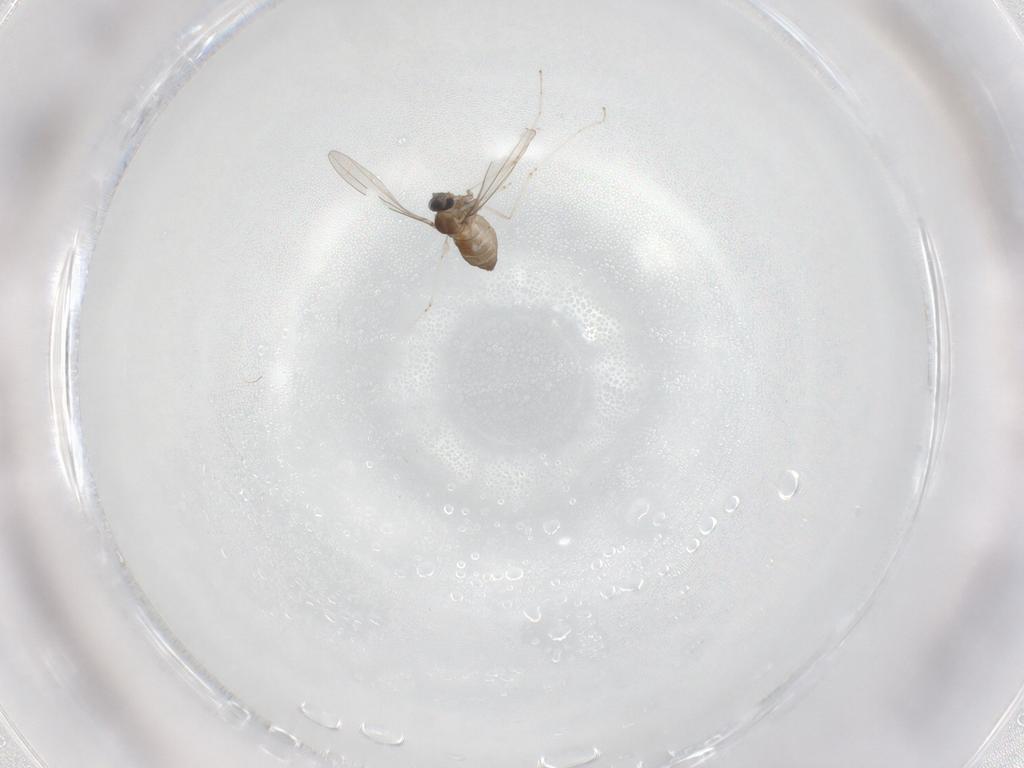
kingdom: Animalia
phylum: Arthropoda
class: Insecta
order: Diptera
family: Cecidomyiidae
